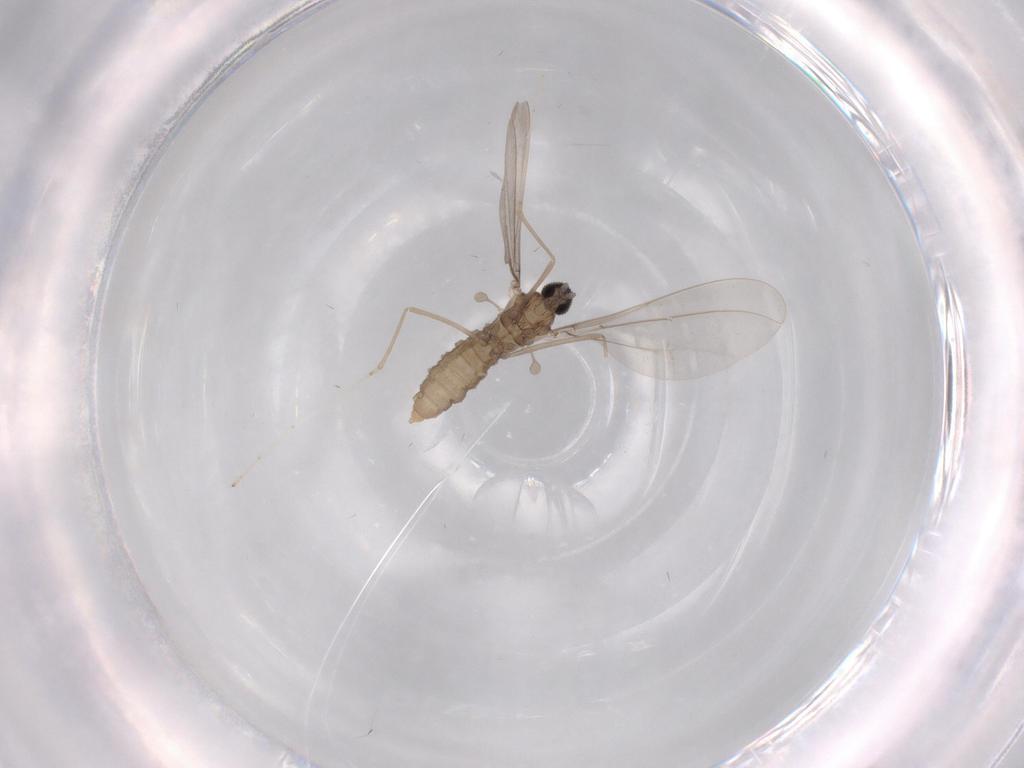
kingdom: Animalia
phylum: Arthropoda
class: Insecta
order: Diptera
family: Cecidomyiidae
